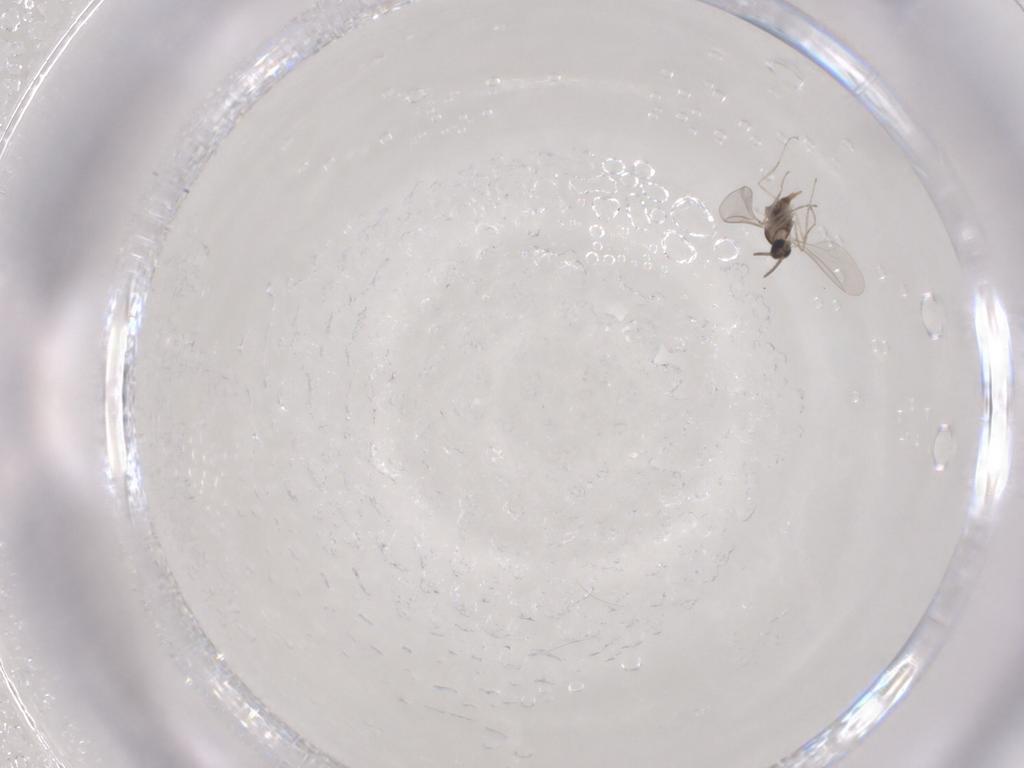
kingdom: Animalia
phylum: Arthropoda
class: Insecta
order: Diptera
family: Cecidomyiidae
